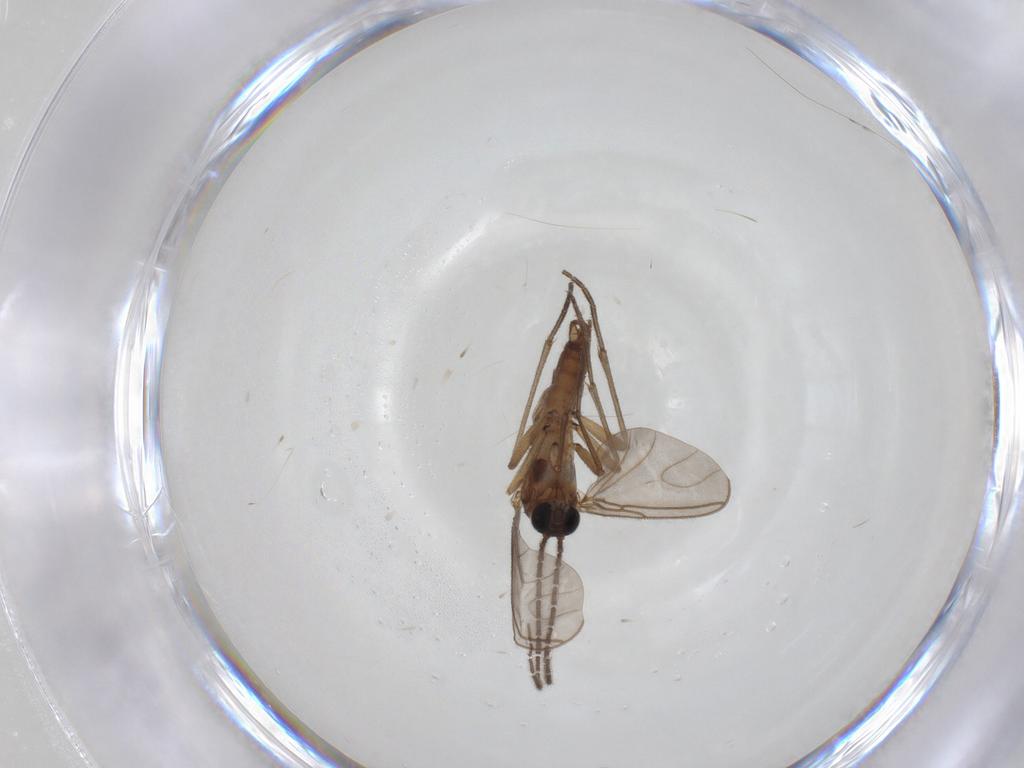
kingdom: Animalia
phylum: Arthropoda
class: Insecta
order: Diptera
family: Sciaridae
